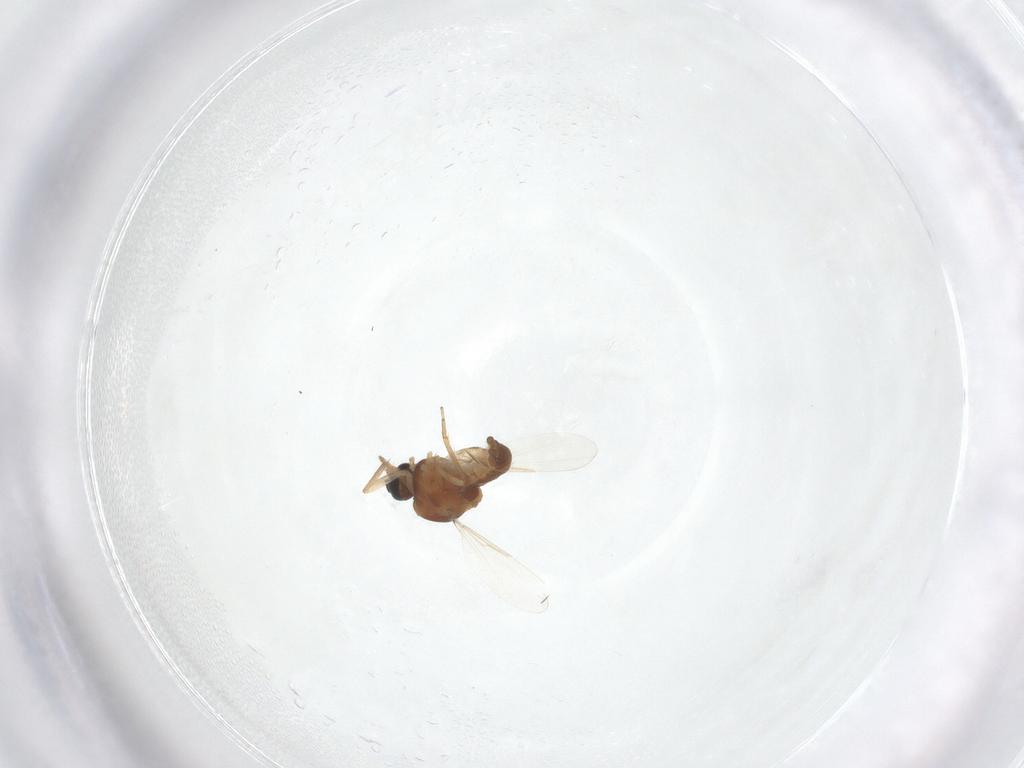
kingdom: Animalia
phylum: Arthropoda
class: Insecta
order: Diptera
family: Ceratopogonidae
